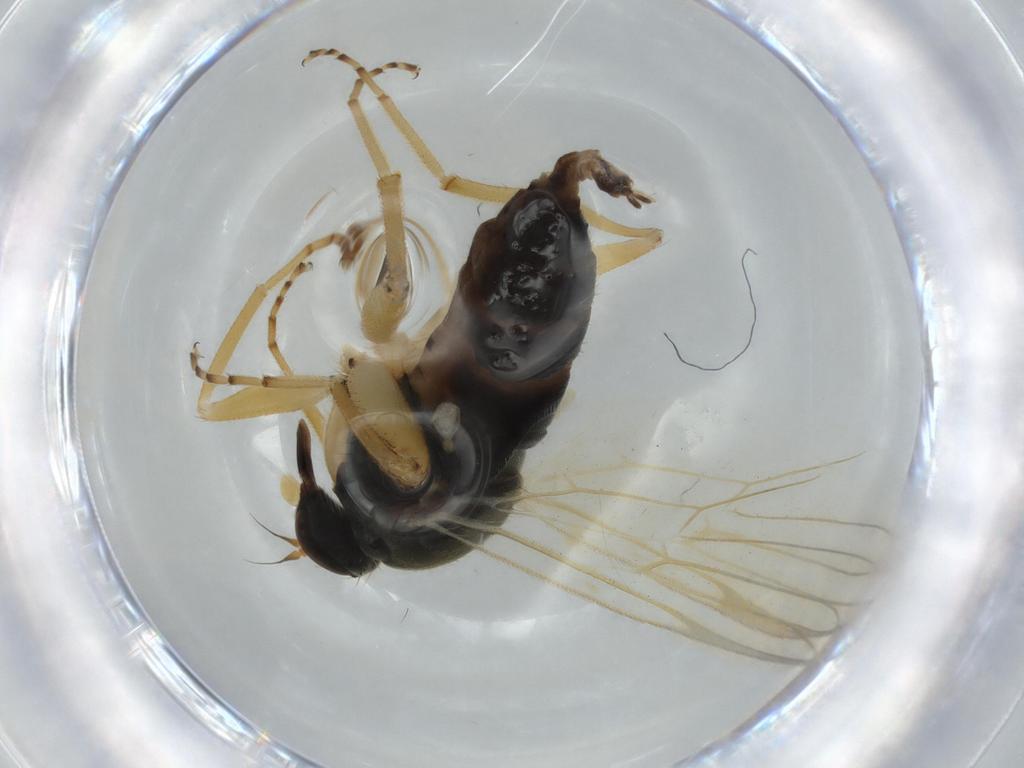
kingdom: Animalia
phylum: Arthropoda
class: Insecta
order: Diptera
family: Hybotidae
